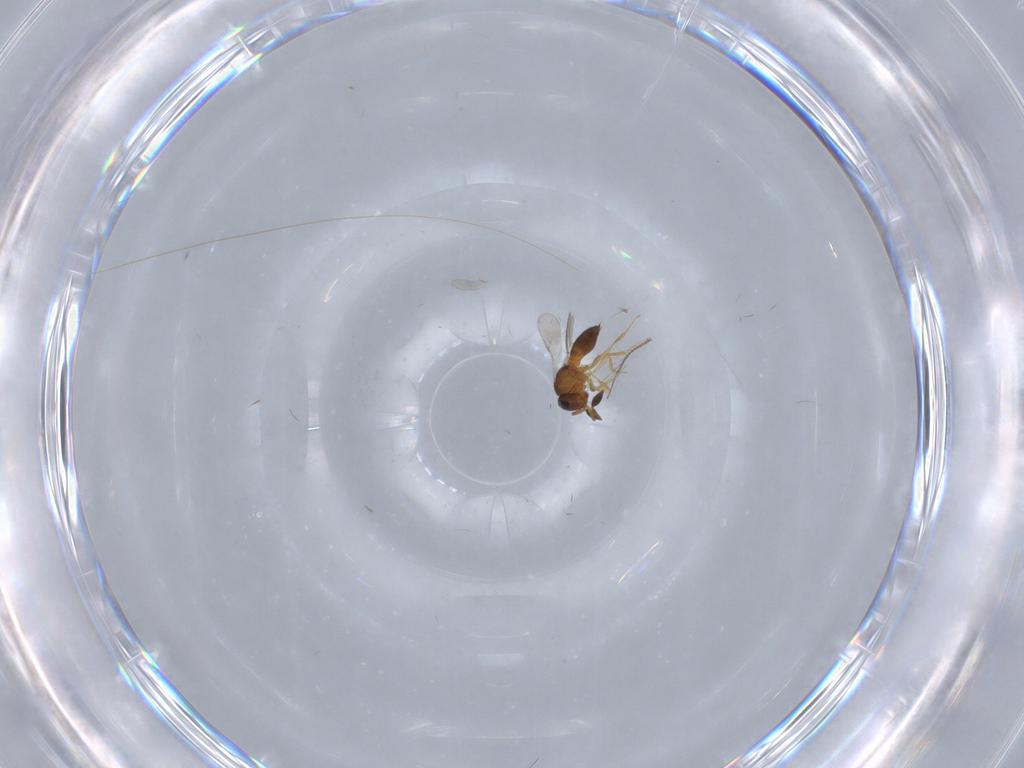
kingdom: Animalia
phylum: Arthropoda
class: Insecta
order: Hymenoptera
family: Scelionidae
